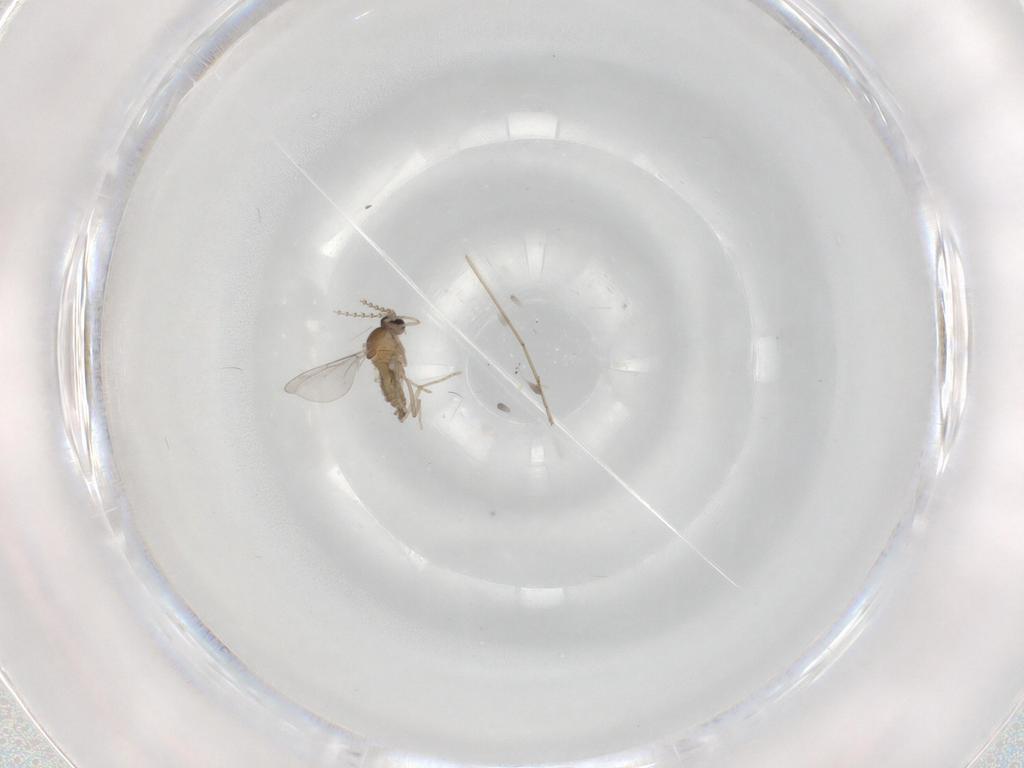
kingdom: Animalia
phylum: Arthropoda
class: Insecta
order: Diptera
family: Cecidomyiidae
